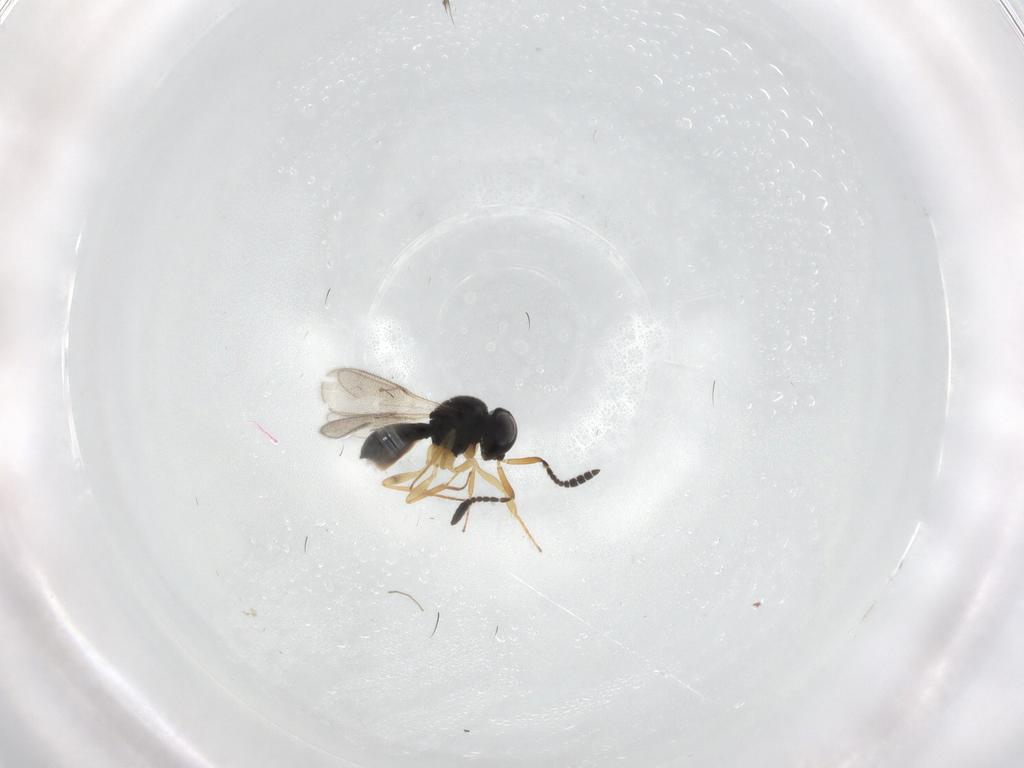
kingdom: Animalia
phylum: Arthropoda
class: Insecta
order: Hymenoptera
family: Scelionidae
